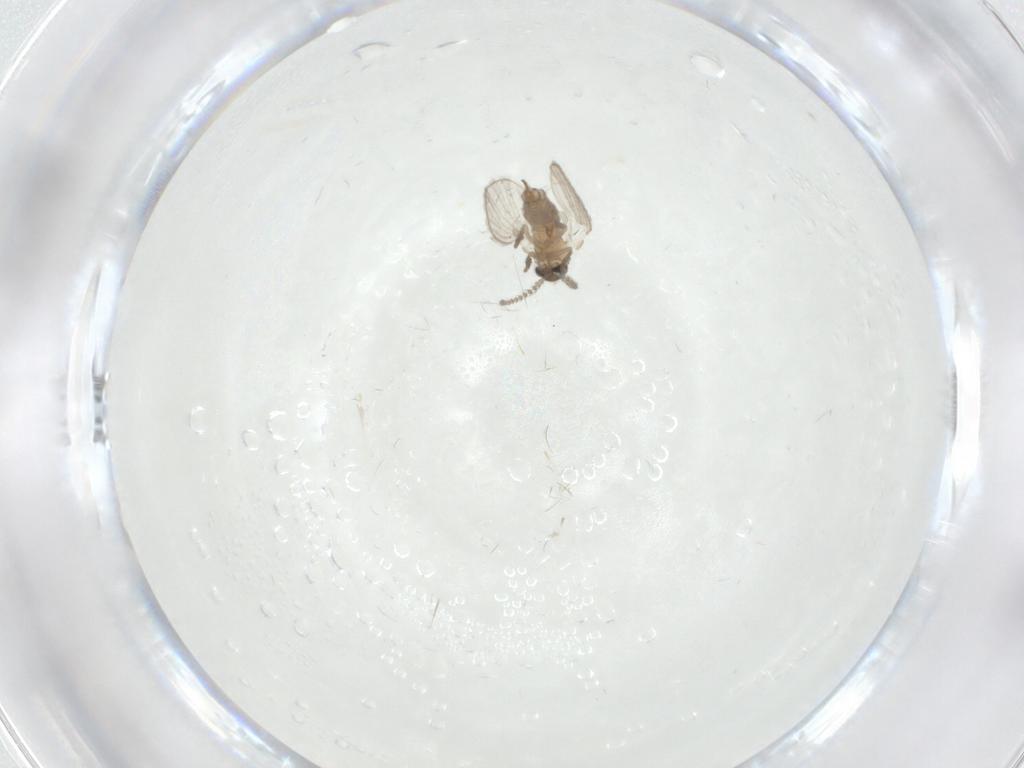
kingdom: Animalia
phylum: Arthropoda
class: Insecta
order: Diptera
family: Psychodidae
